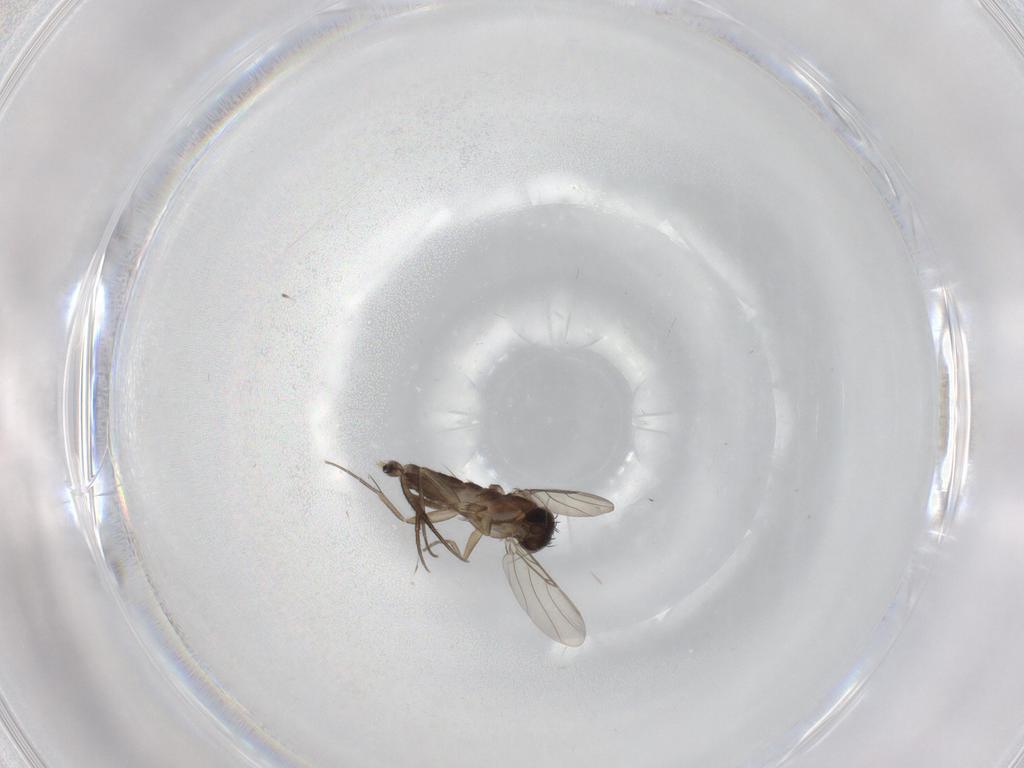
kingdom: Animalia
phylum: Arthropoda
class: Insecta
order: Diptera
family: Phoridae
